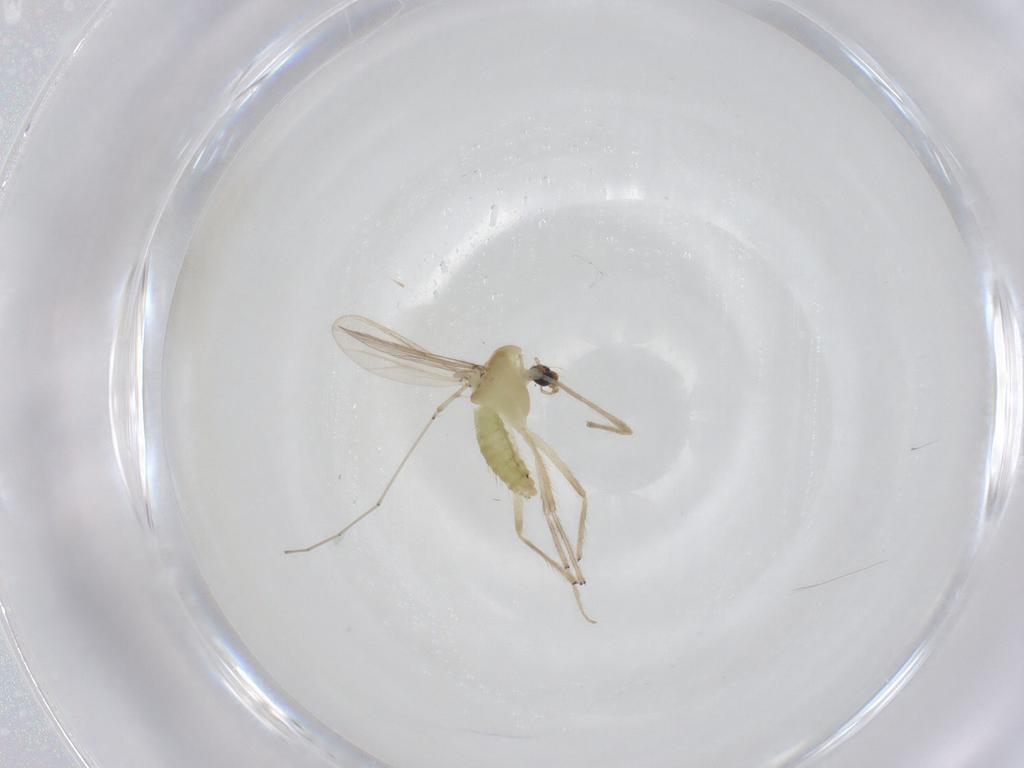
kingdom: Animalia
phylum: Arthropoda
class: Insecta
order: Diptera
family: Chironomidae
